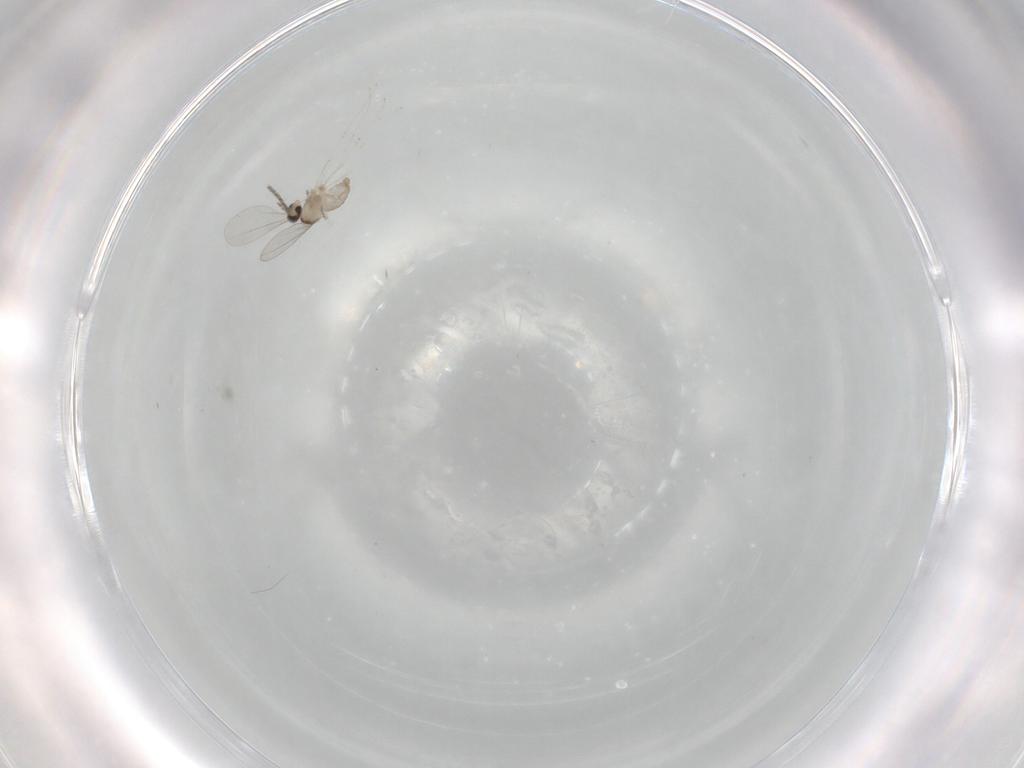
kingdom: Animalia
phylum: Arthropoda
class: Insecta
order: Diptera
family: Cecidomyiidae
